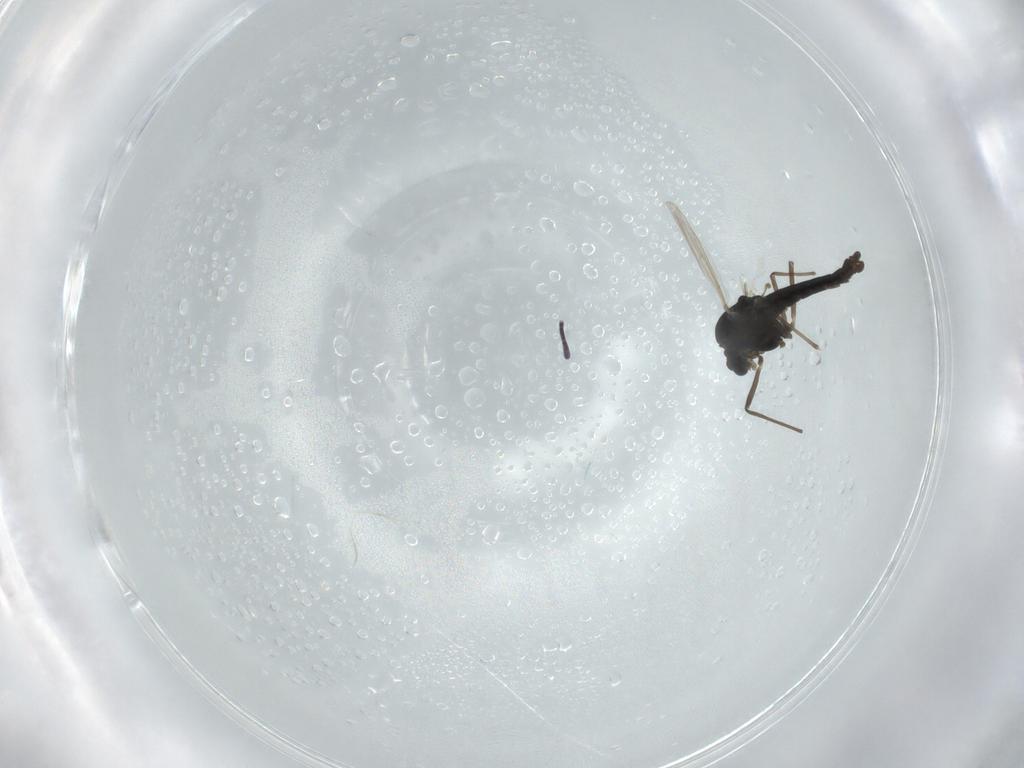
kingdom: Animalia
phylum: Arthropoda
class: Insecta
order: Diptera
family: Chironomidae
